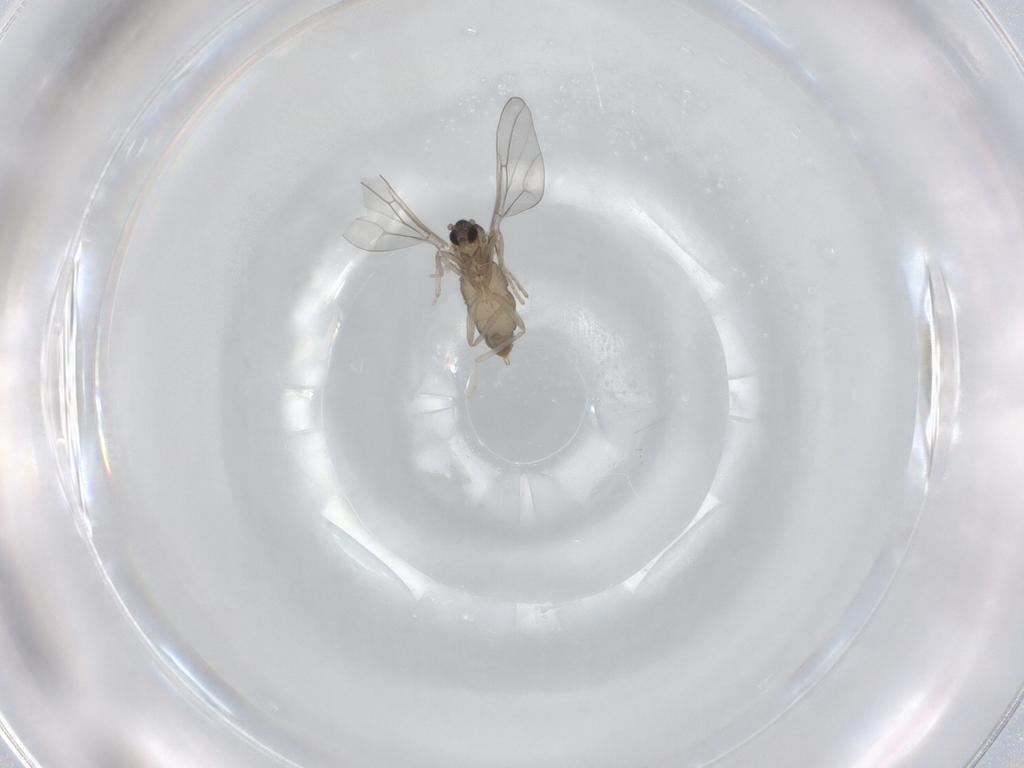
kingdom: Animalia
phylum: Arthropoda
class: Insecta
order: Diptera
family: Cecidomyiidae
